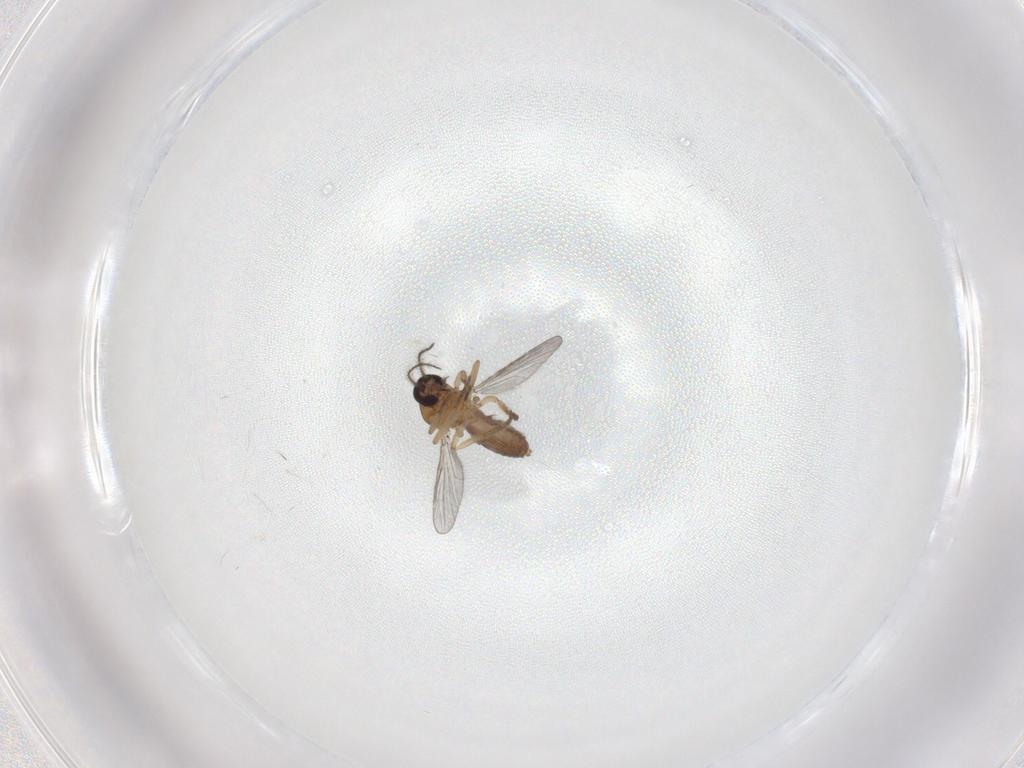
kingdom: Animalia
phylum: Arthropoda
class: Insecta
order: Diptera
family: Ceratopogonidae
